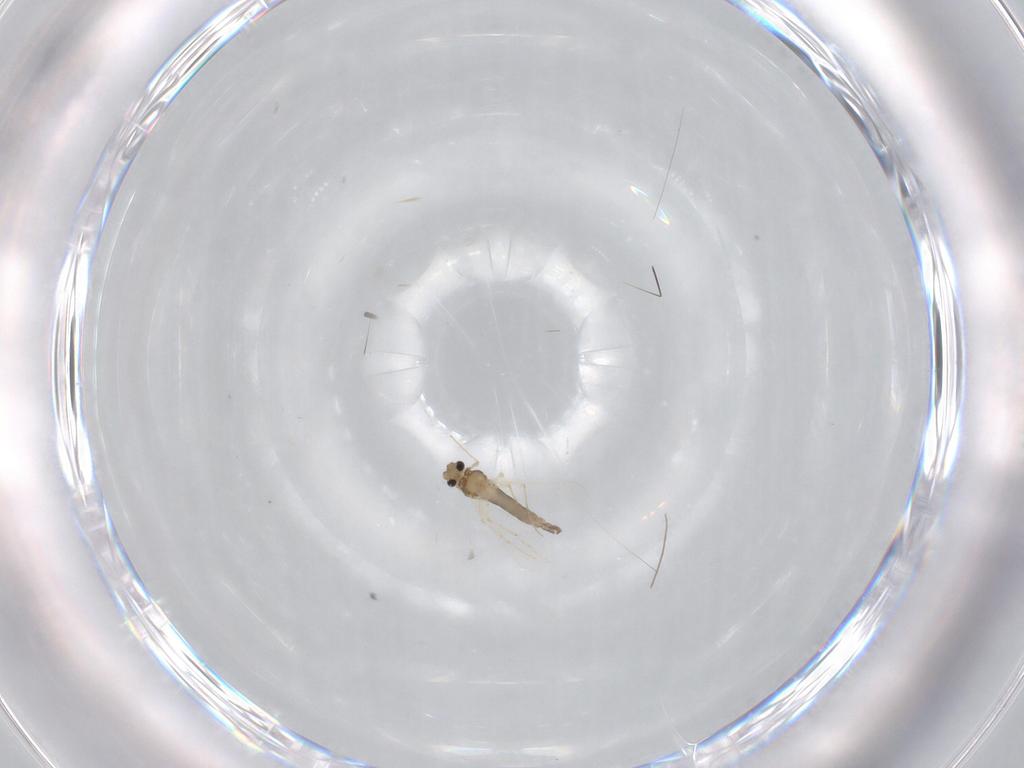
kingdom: Animalia
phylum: Arthropoda
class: Insecta
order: Diptera
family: Chironomidae
